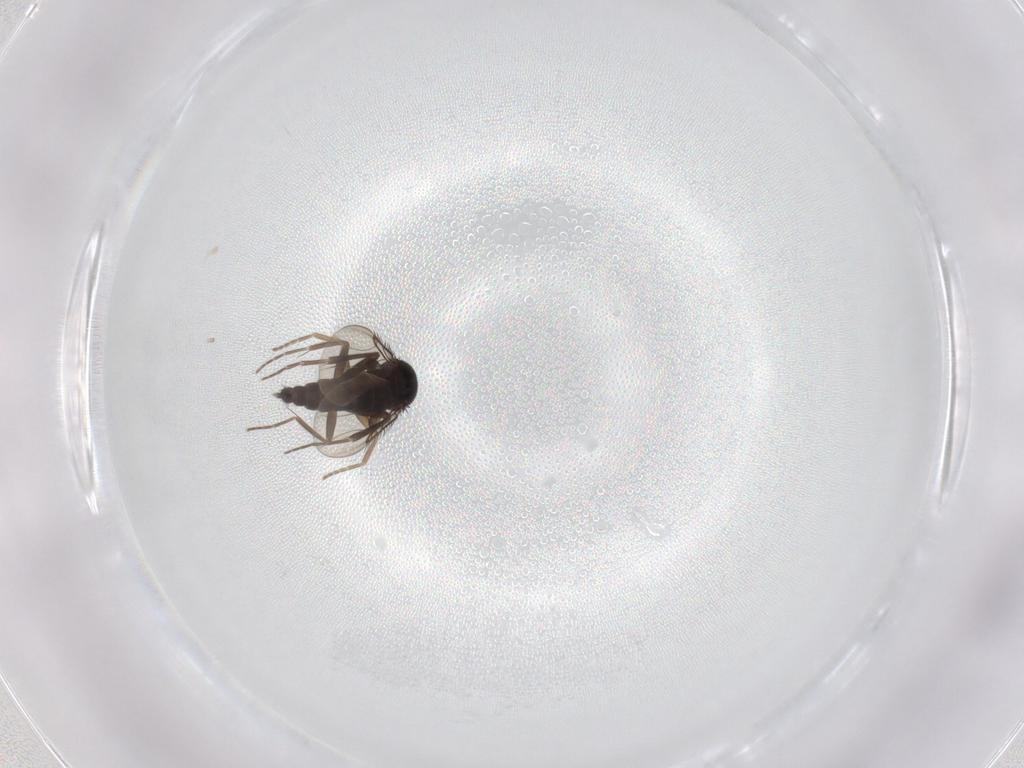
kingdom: Animalia
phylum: Arthropoda
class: Insecta
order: Diptera
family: Phoridae
